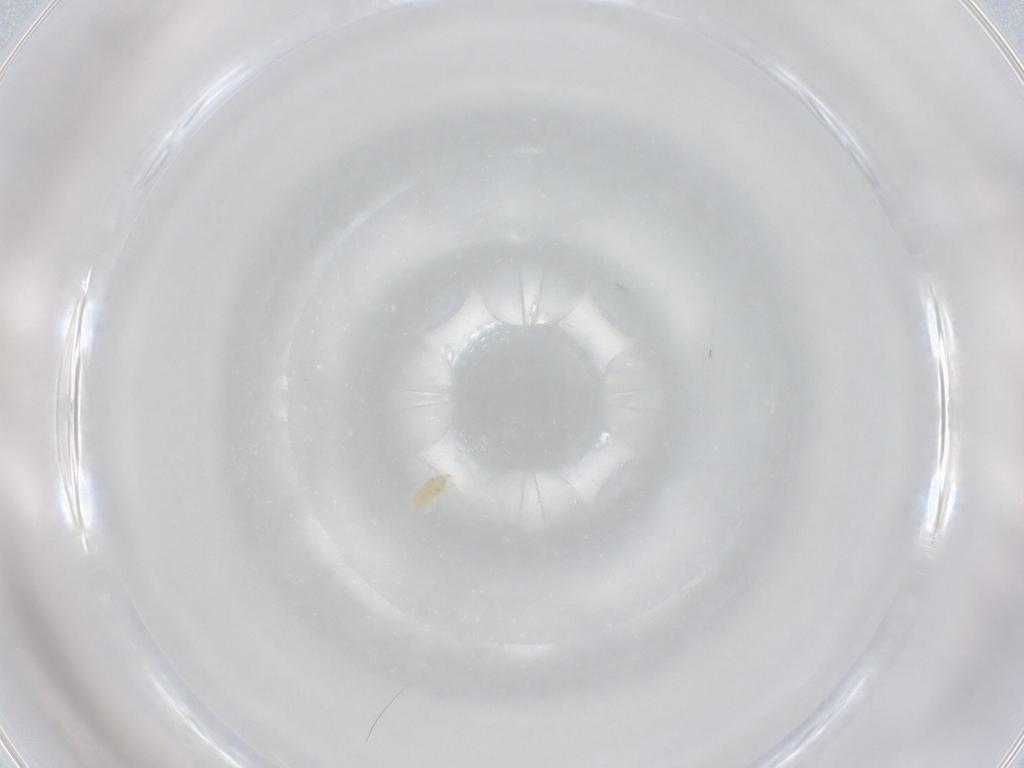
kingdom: Animalia
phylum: Arthropoda
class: Arachnida
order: Trombidiformes
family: Eupodidae
